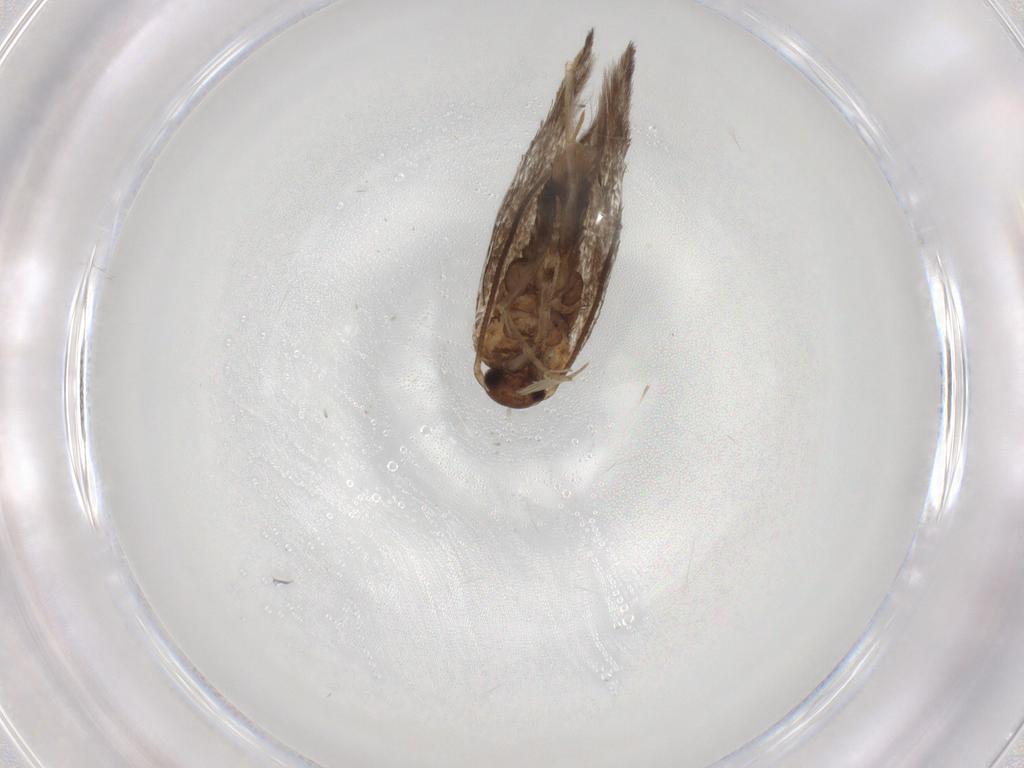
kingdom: Animalia
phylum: Arthropoda
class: Insecta
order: Lepidoptera
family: Elachistidae
